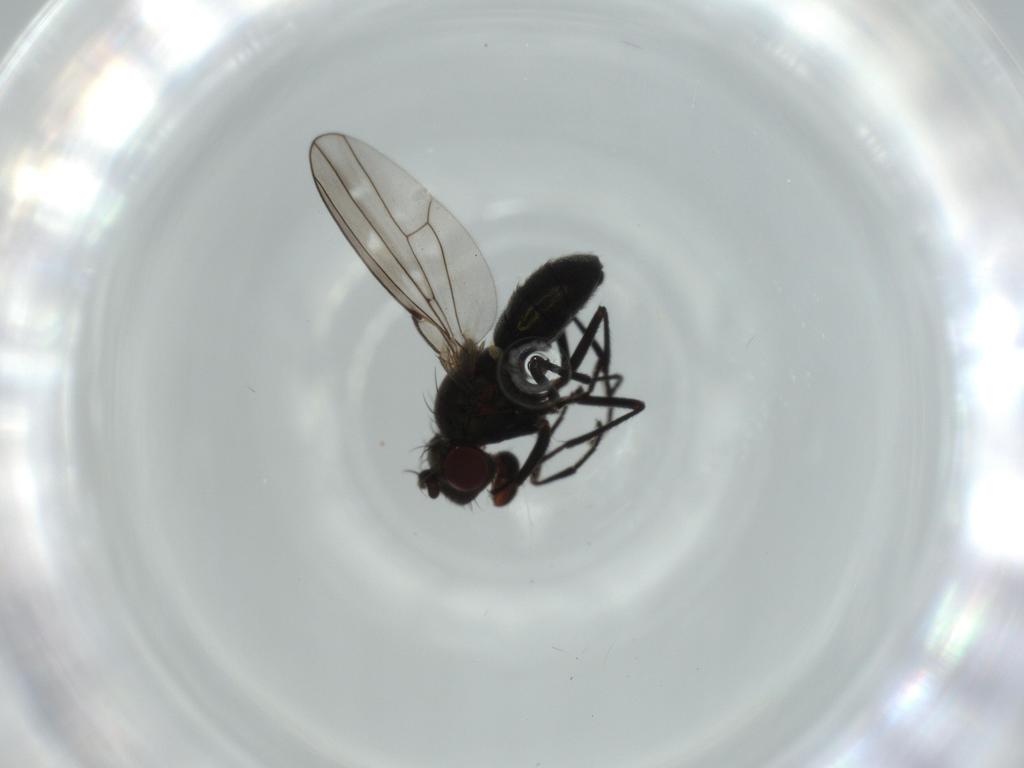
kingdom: Animalia
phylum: Arthropoda
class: Insecta
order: Diptera
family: Ephydridae
